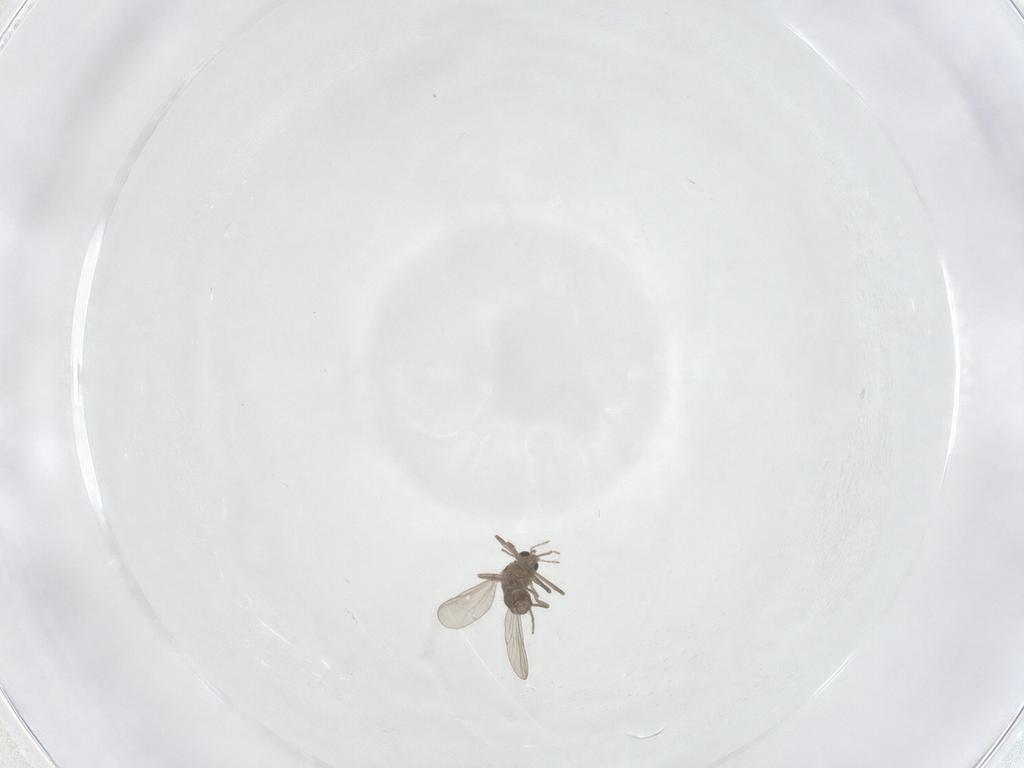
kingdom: Animalia
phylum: Arthropoda
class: Insecta
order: Diptera
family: Chironomidae
